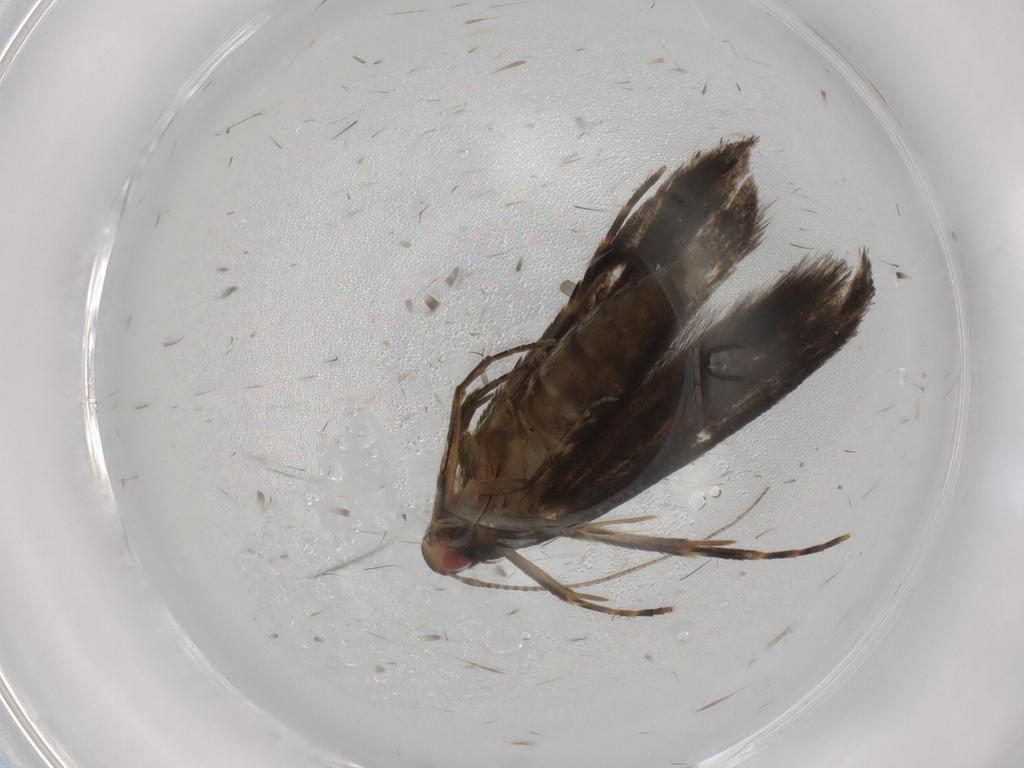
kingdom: Animalia
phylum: Arthropoda
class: Insecta
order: Lepidoptera
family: Gelechiidae
